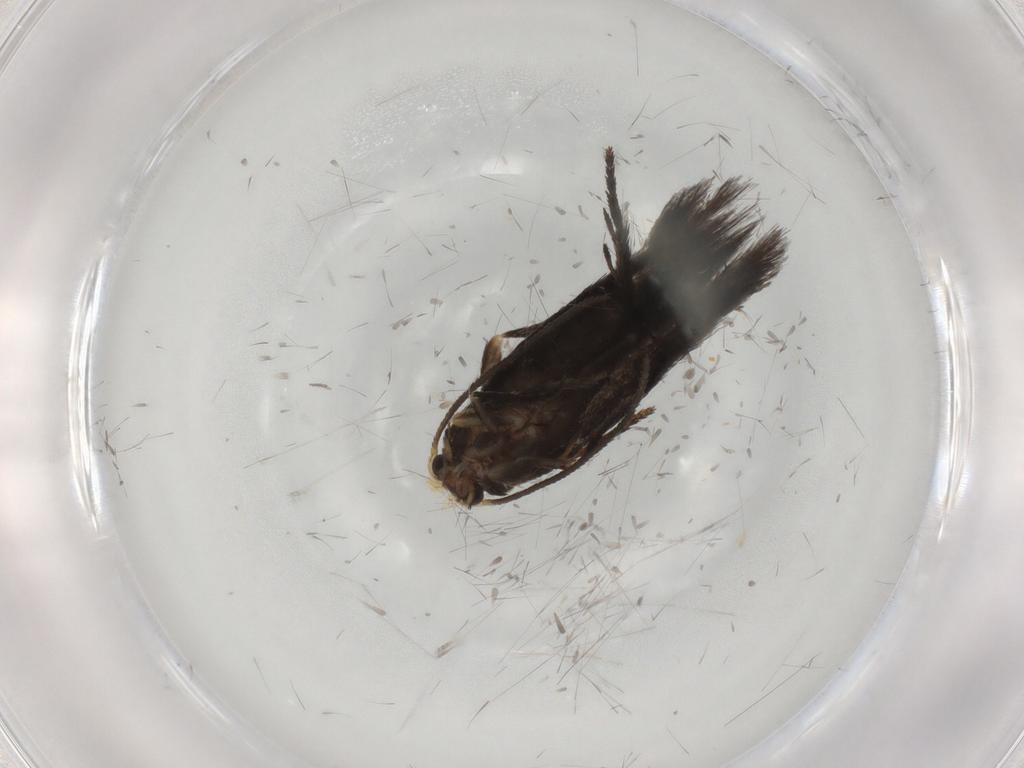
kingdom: Animalia
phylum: Arthropoda
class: Insecta
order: Lepidoptera
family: Nepticulidae
